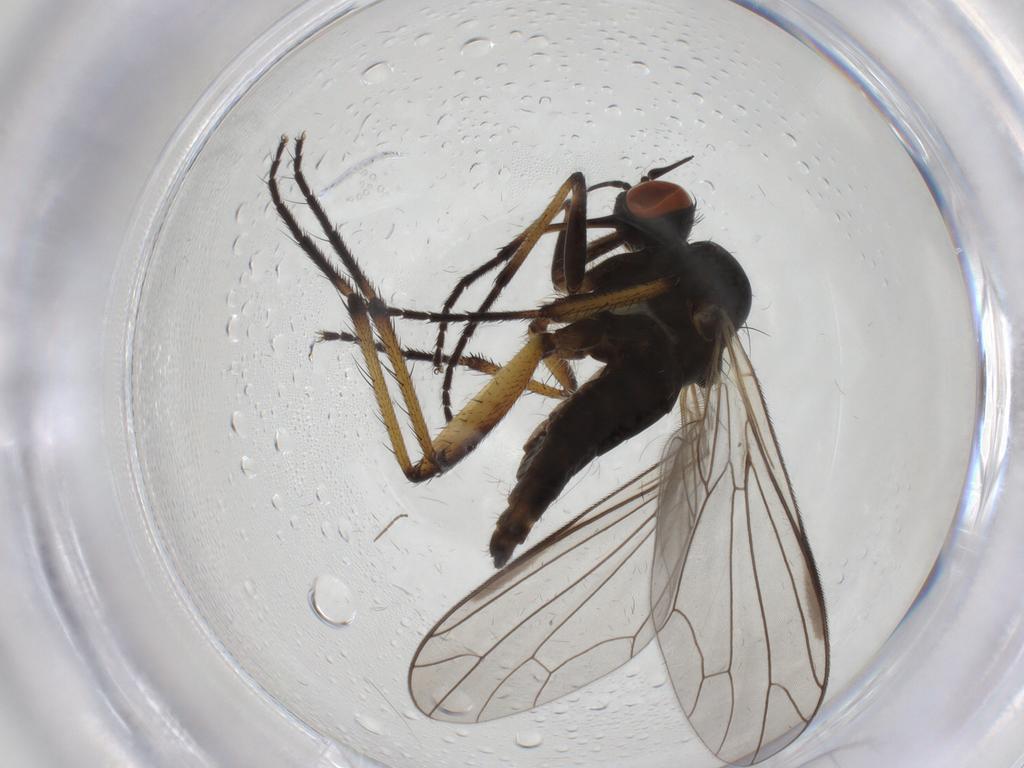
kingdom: Animalia
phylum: Arthropoda
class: Insecta
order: Diptera
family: Empididae
